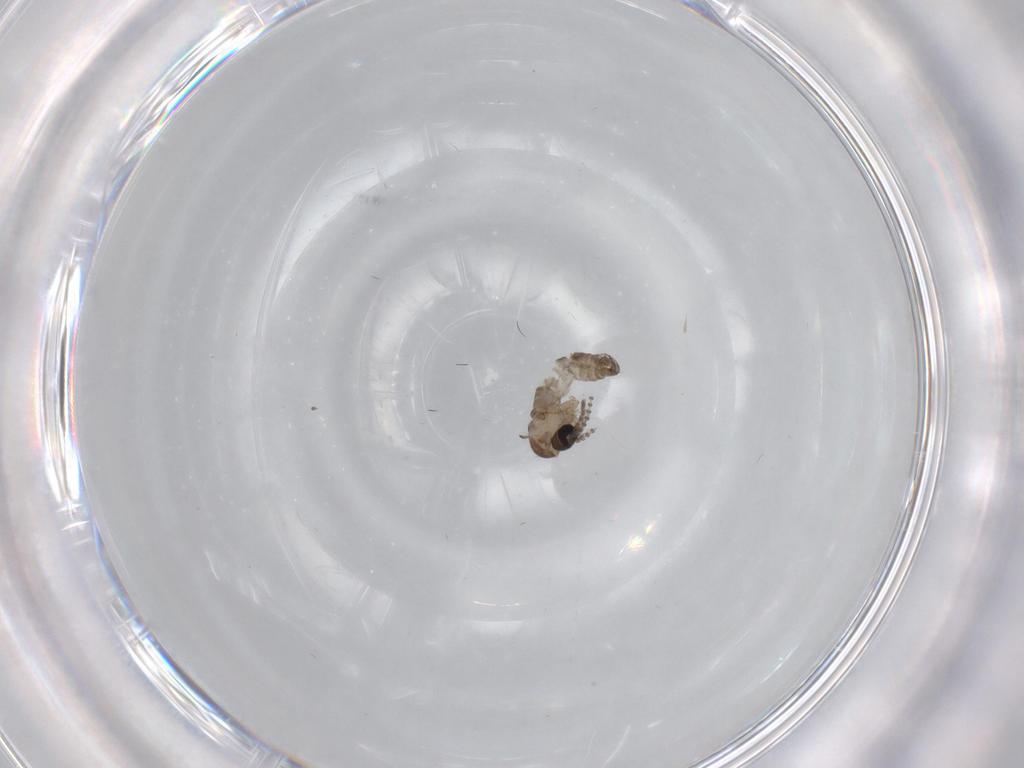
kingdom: Animalia
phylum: Arthropoda
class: Insecta
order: Diptera
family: Psychodidae
